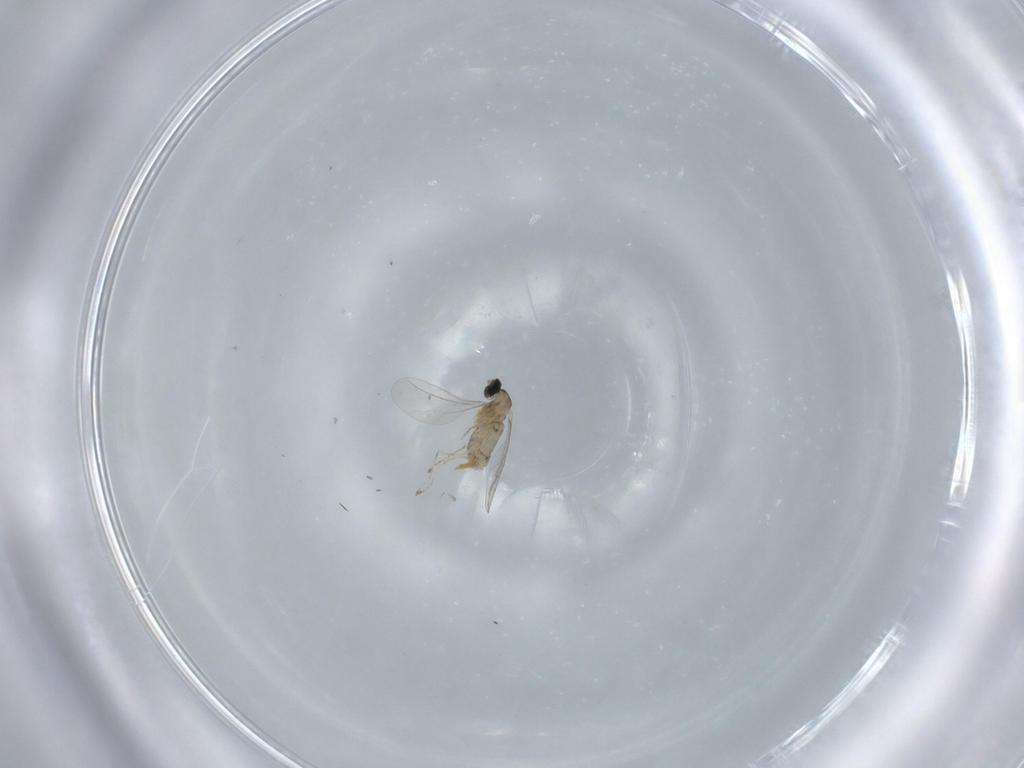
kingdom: Animalia
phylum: Arthropoda
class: Insecta
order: Diptera
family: Cecidomyiidae
